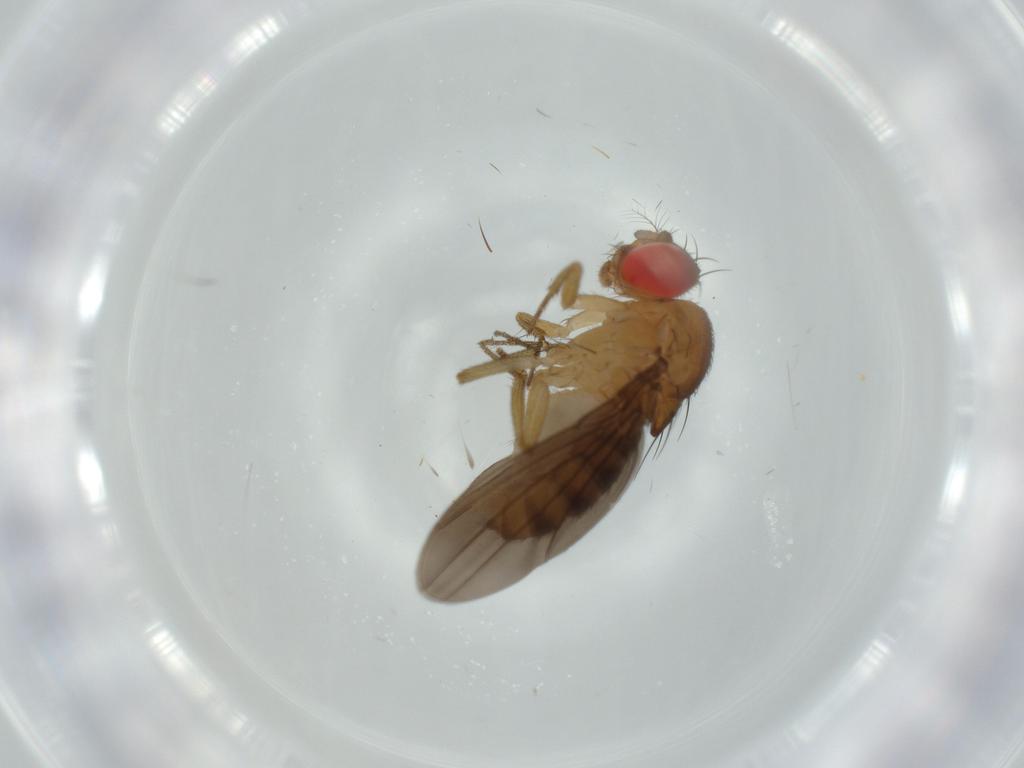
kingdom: Animalia
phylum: Arthropoda
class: Insecta
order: Diptera
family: Drosophilidae
